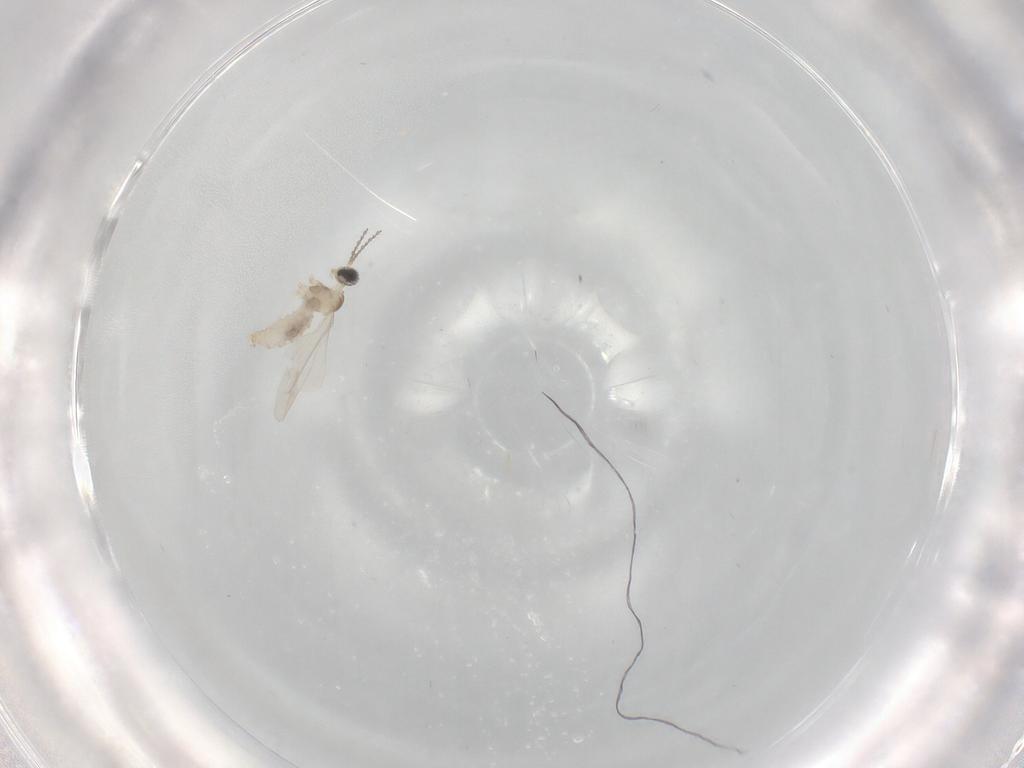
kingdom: Animalia
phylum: Arthropoda
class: Insecta
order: Diptera
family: Cecidomyiidae
